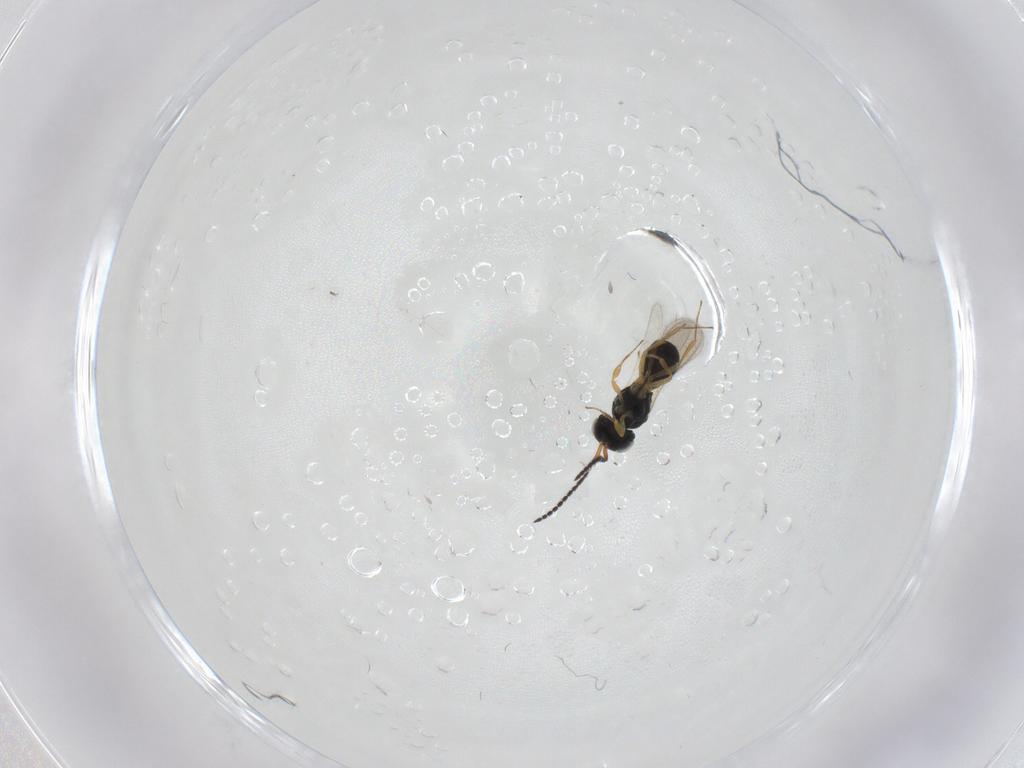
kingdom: Animalia
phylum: Arthropoda
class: Insecta
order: Hymenoptera
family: Scelionidae
